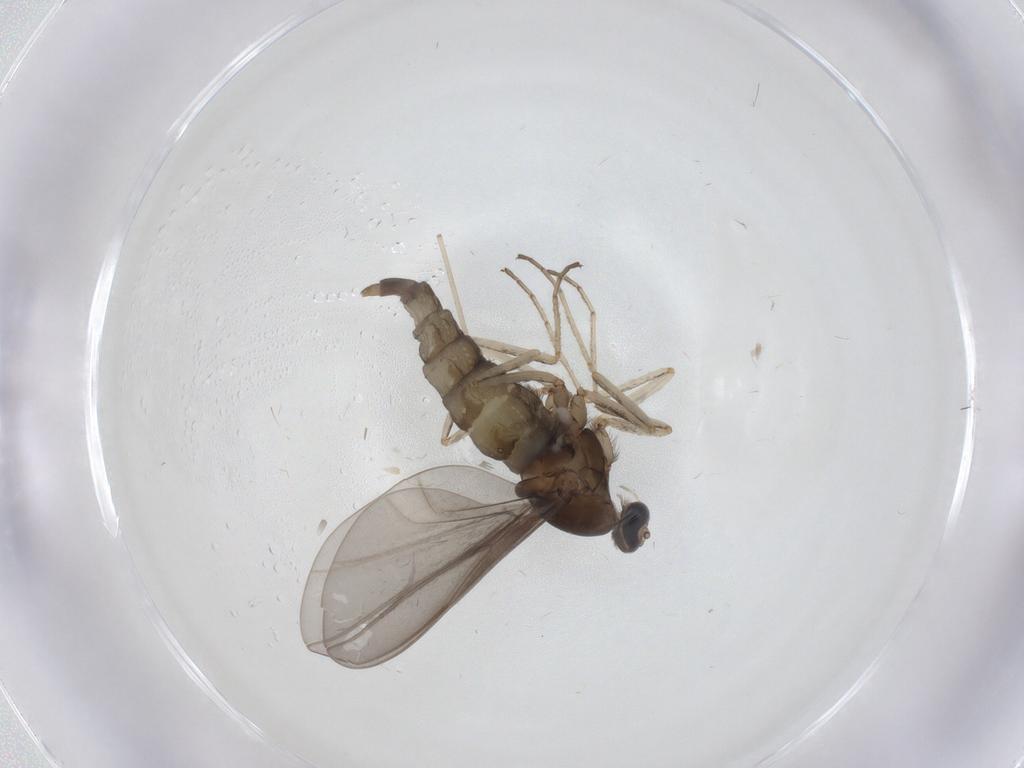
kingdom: Animalia
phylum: Arthropoda
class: Insecta
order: Diptera
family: Cecidomyiidae
